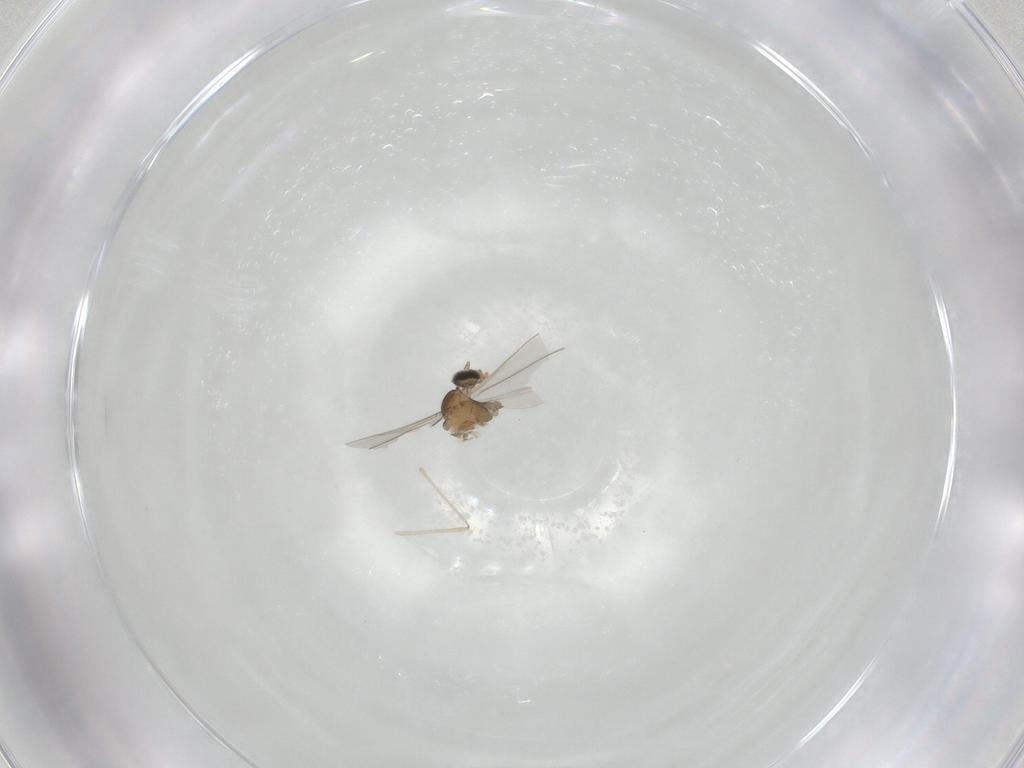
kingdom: Animalia
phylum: Arthropoda
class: Insecta
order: Diptera
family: Cecidomyiidae
